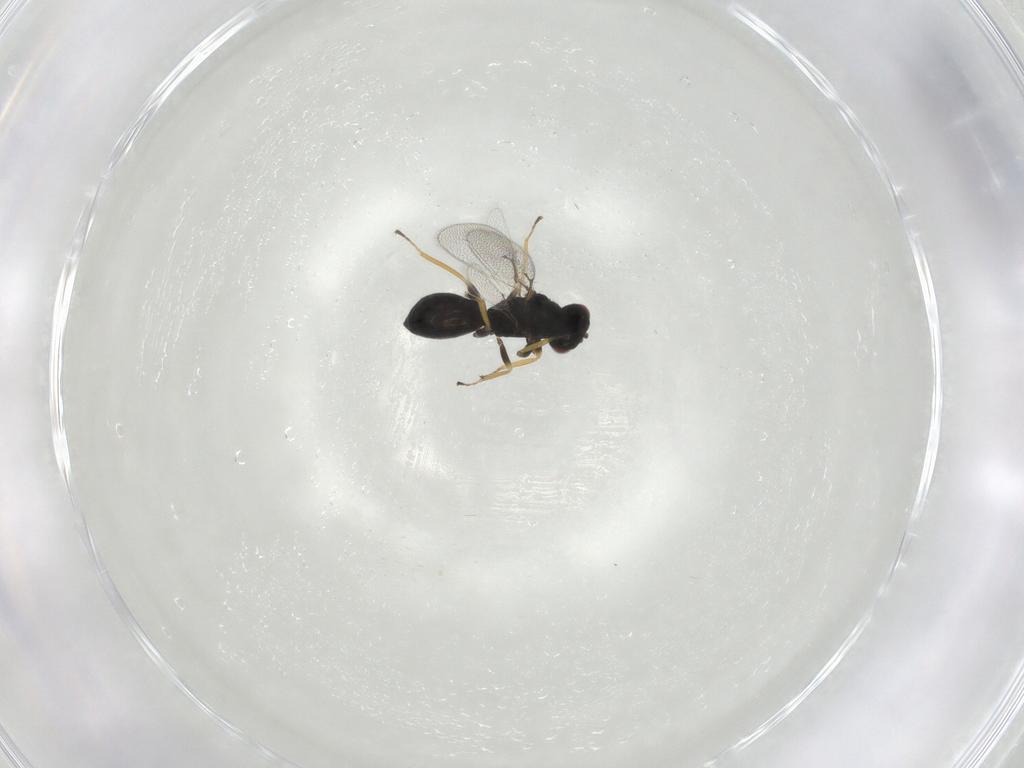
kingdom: Animalia
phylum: Arthropoda
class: Insecta
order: Hymenoptera
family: Eulophidae
